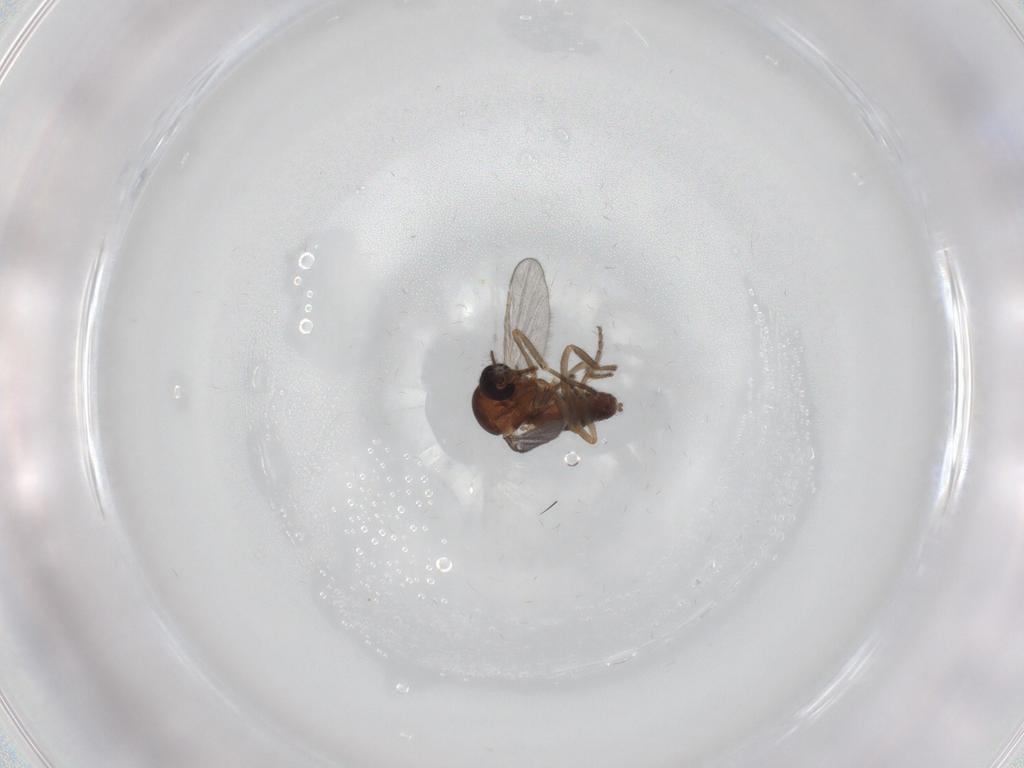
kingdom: Animalia
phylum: Arthropoda
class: Insecta
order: Diptera
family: Ceratopogonidae
